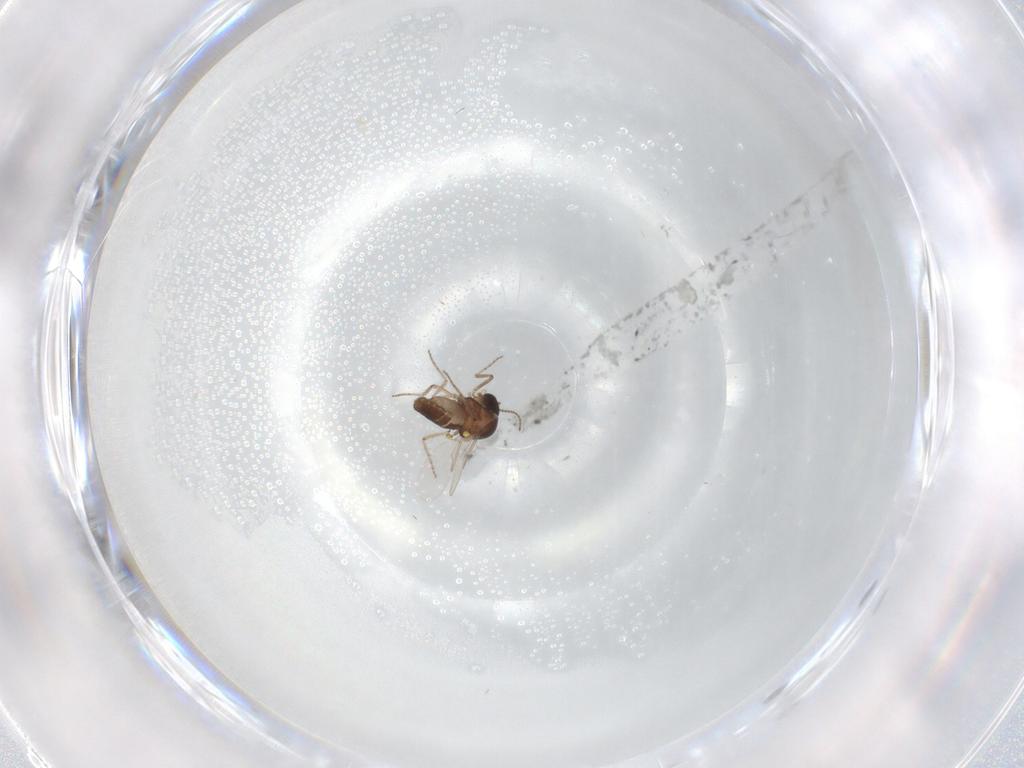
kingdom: Animalia
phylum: Arthropoda
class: Insecta
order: Diptera
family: Ceratopogonidae
